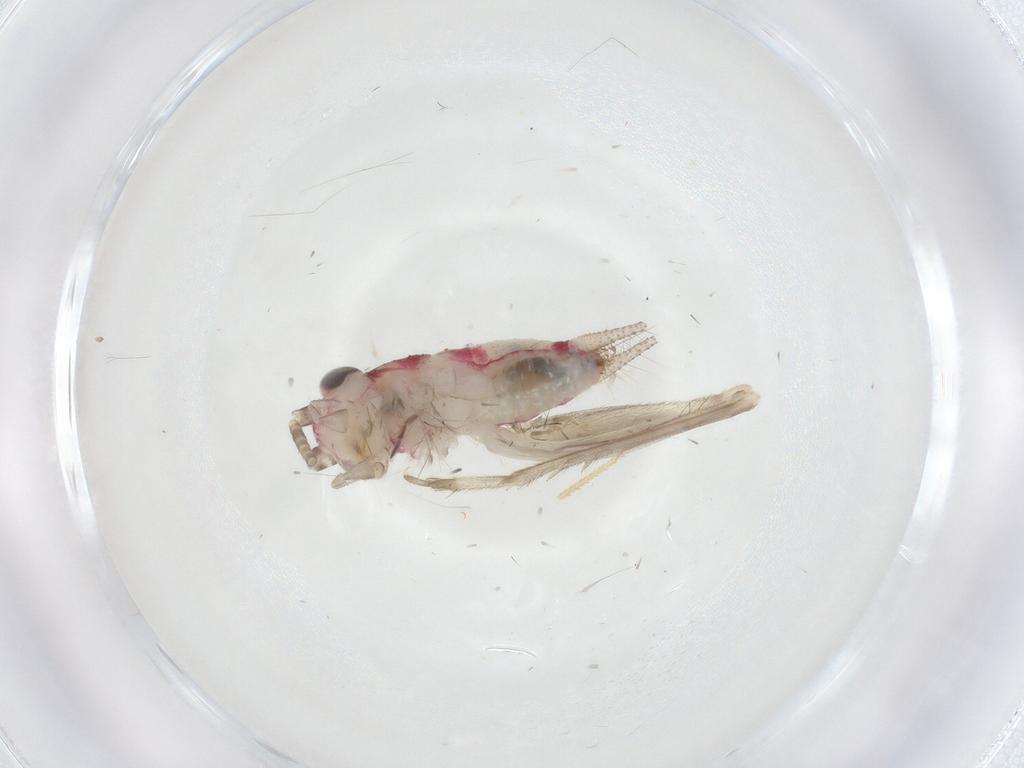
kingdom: Animalia
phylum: Arthropoda
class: Insecta
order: Orthoptera
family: Trigonidiidae
